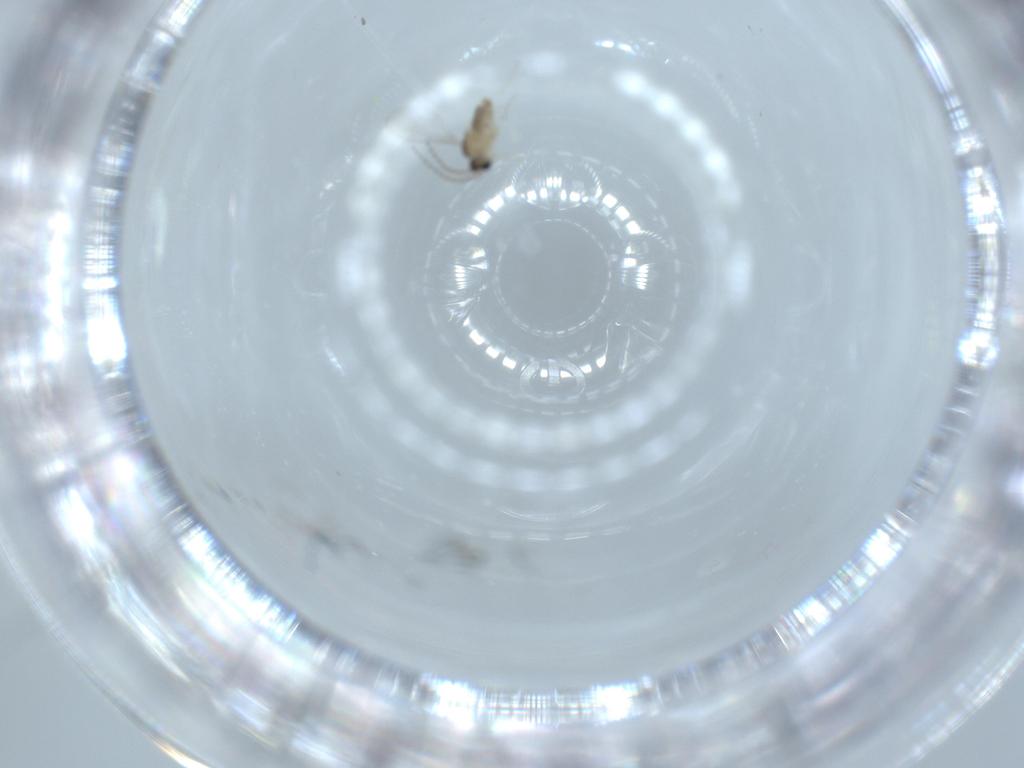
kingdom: Animalia
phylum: Arthropoda
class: Insecta
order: Diptera
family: Cecidomyiidae
